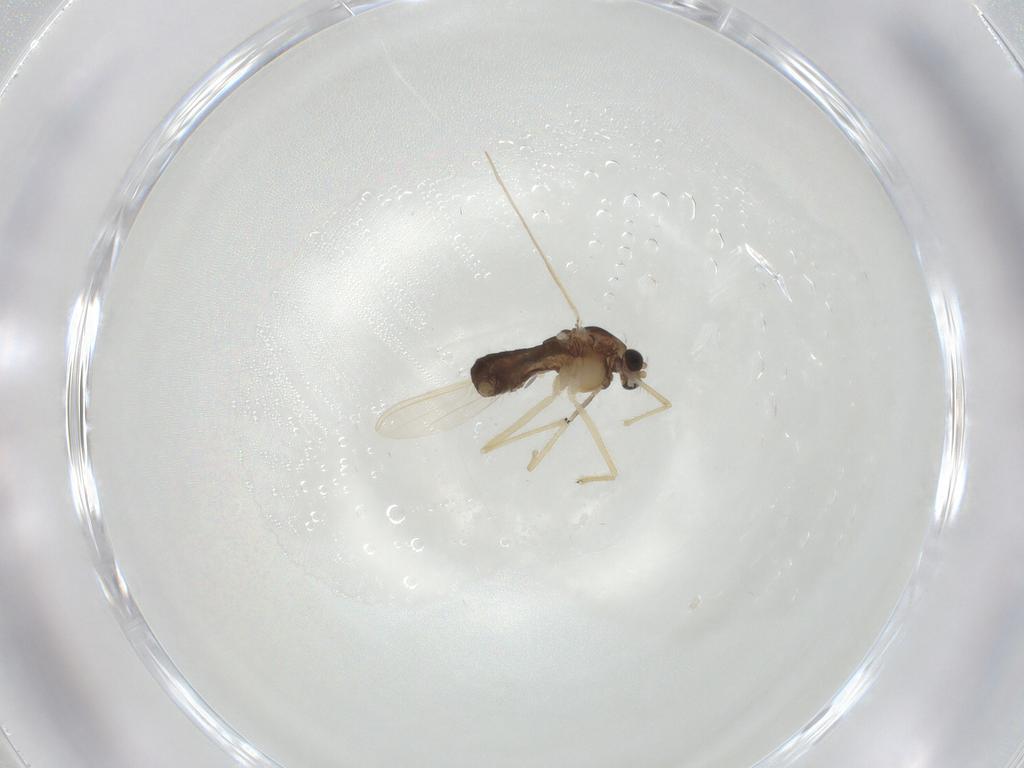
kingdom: Animalia
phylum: Arthropoda
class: Insecta
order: Diptera
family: Chironomidae
